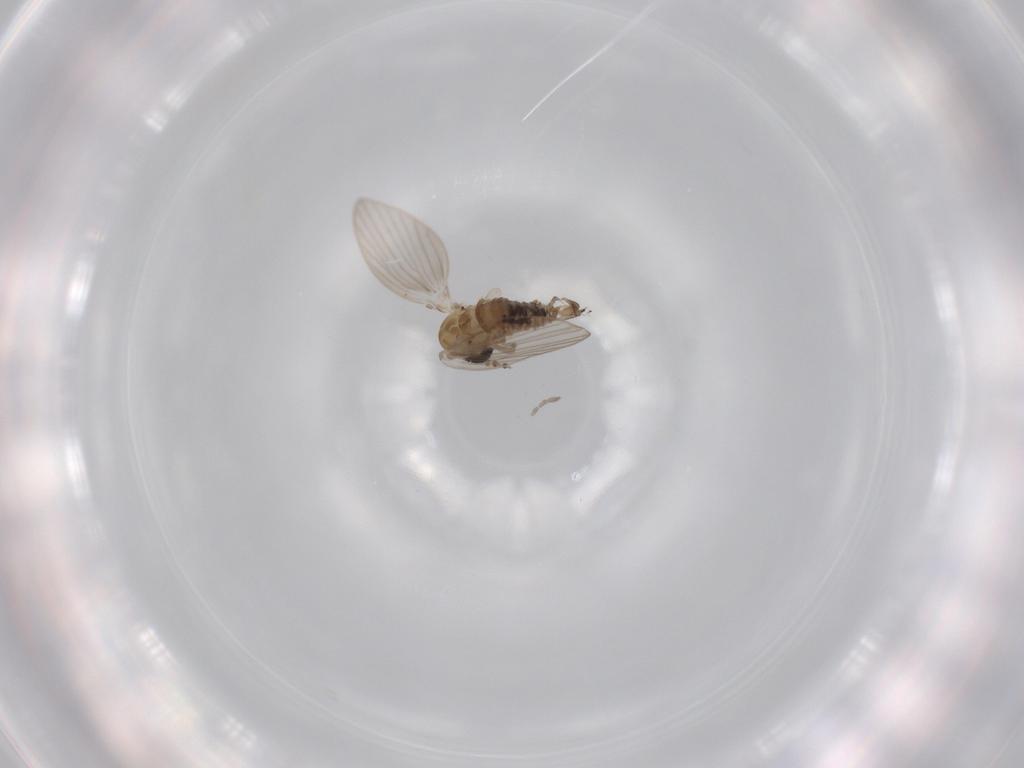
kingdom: Animalia
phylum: Arthropoda
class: Insecta
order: Diptera
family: Psychodidae
